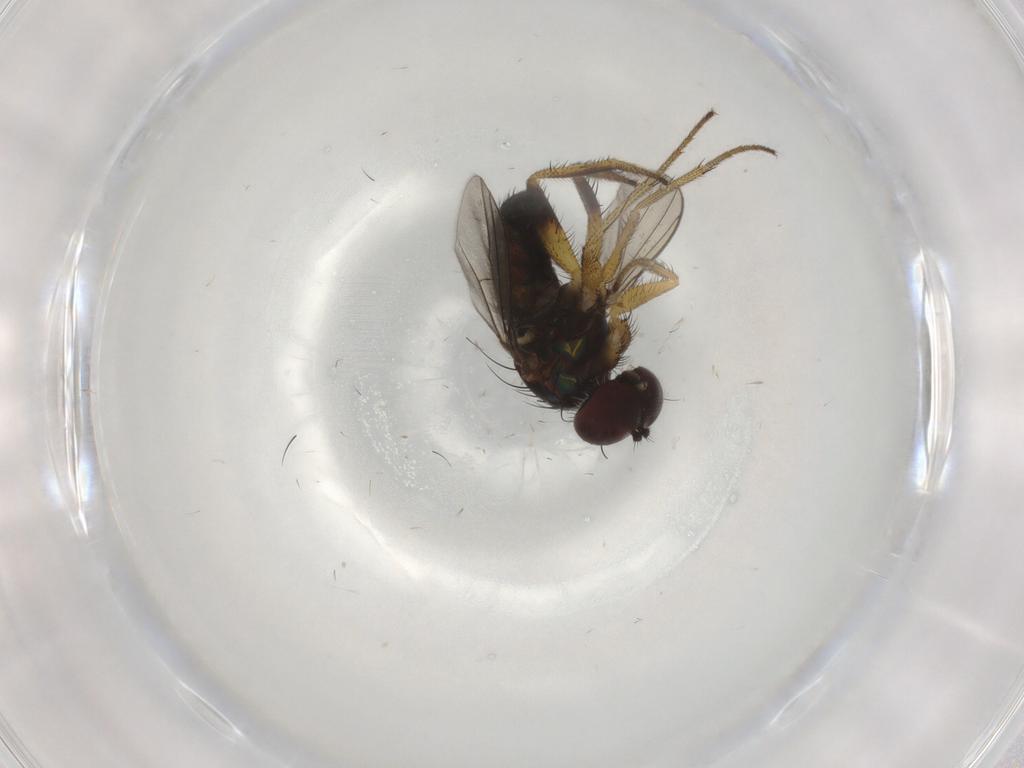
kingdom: Animalia
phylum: Arthropoda
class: Insecta
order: Diptera
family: Dolichopodidae
